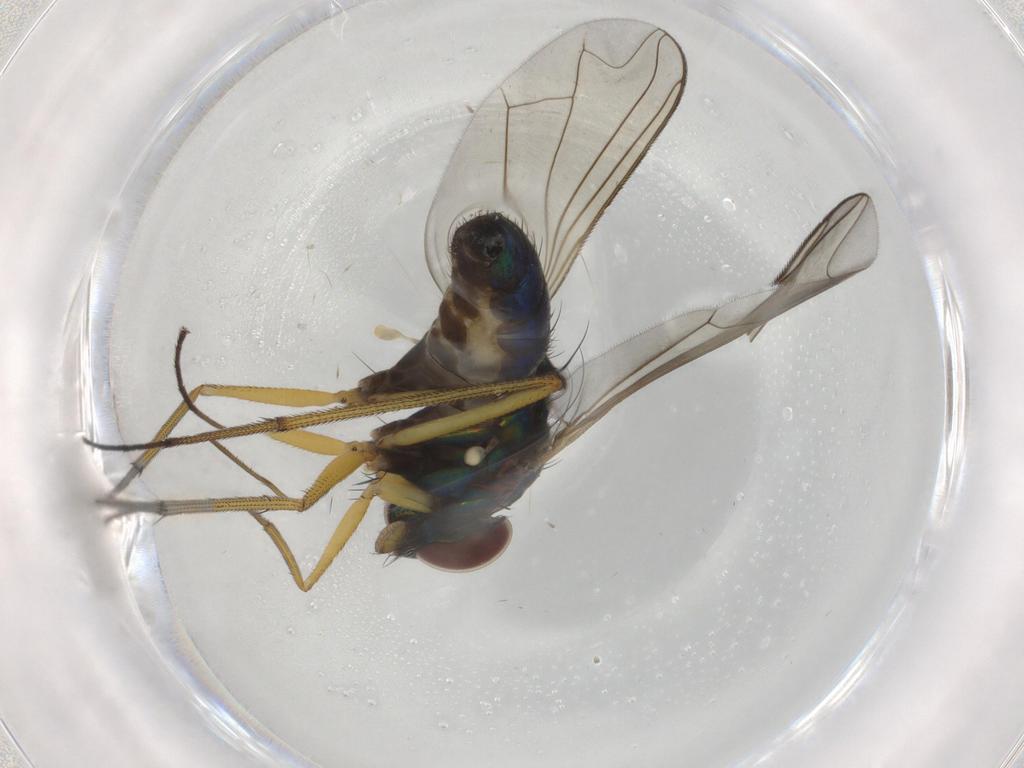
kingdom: Animalia
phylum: Arthropoda
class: Insecta
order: Diptera
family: Dolichopodidae
